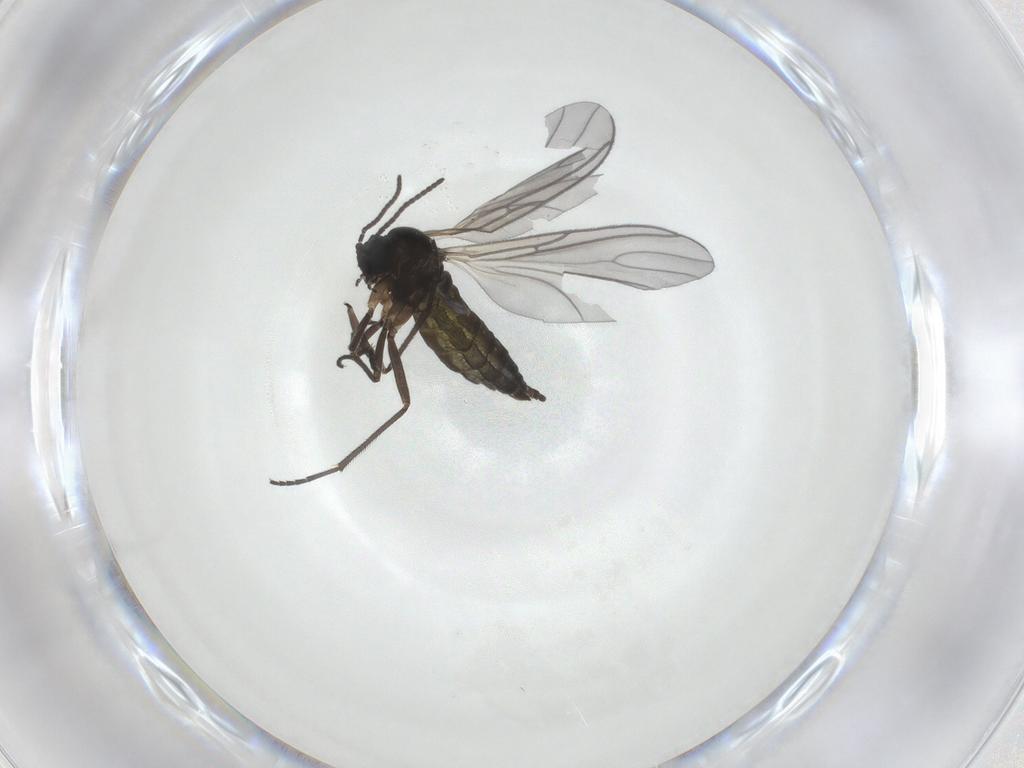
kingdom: Animalia
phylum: Arthropoda
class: Insecta
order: Diptera
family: Sciaridae
